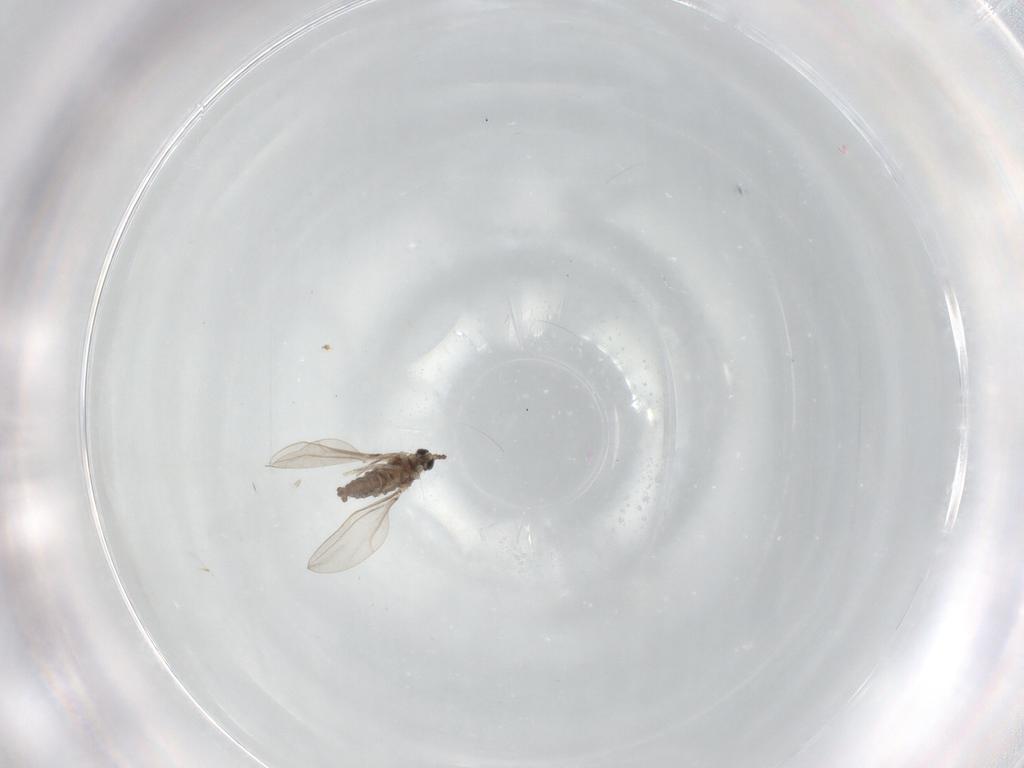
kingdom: Animalia
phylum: Arthropoda
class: Insecta
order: Diptera
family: Cecidomyiidae
